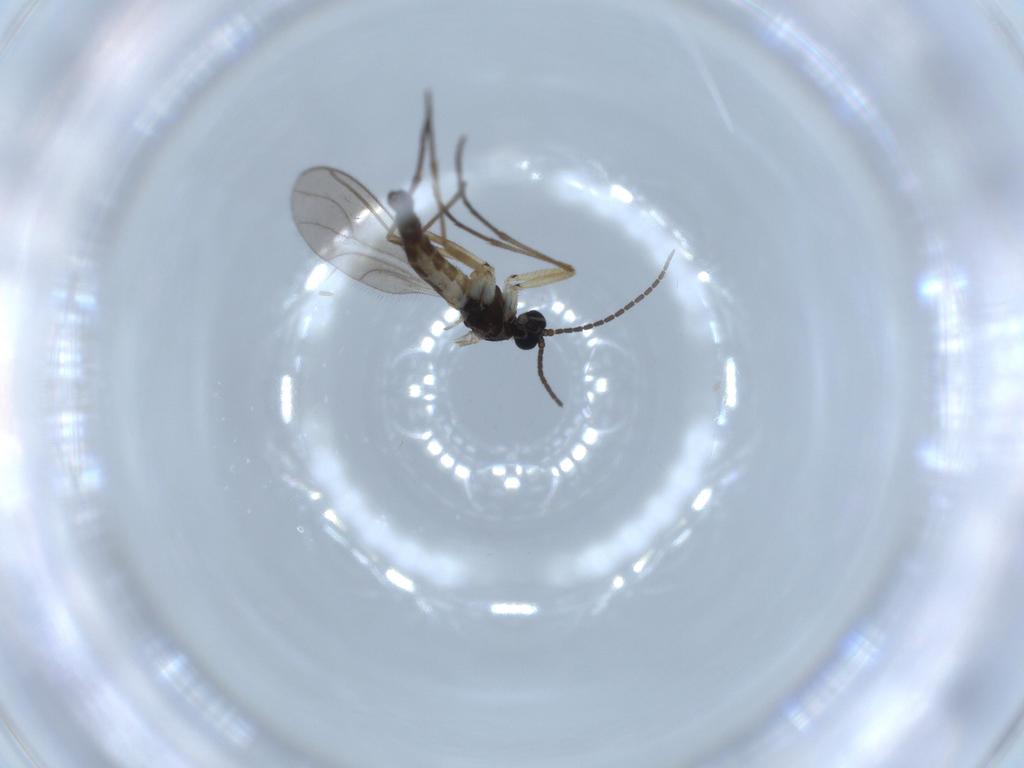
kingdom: Animalia
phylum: Arthropoda
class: Insecta
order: Diptera
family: Sciaridae
